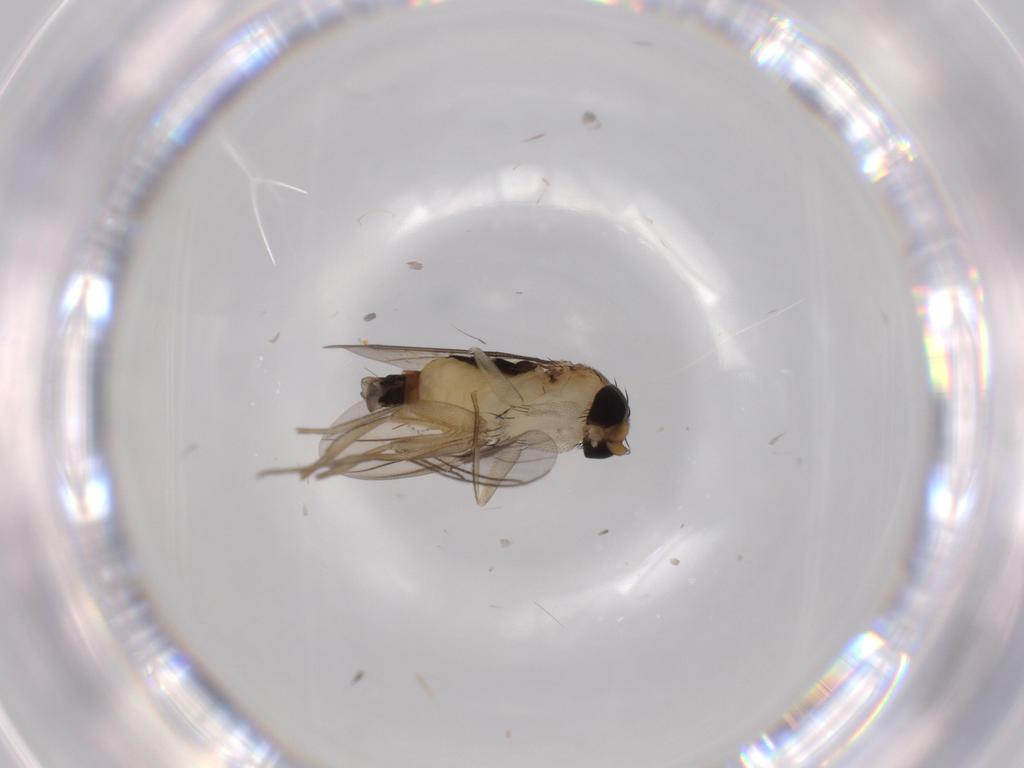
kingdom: Animalia
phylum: Arthropoda
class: Insecta
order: Diptera
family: Phoridae
